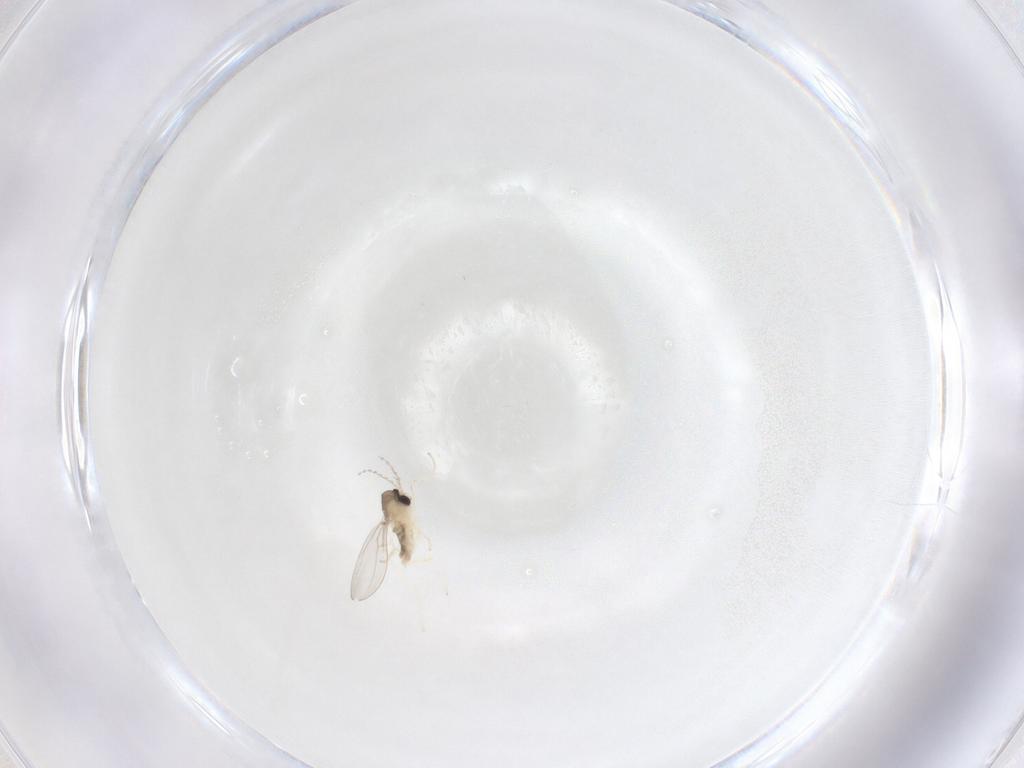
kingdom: Animalia
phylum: Arthropoda
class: Insecta
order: Diptera
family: Cecidomyiidae
